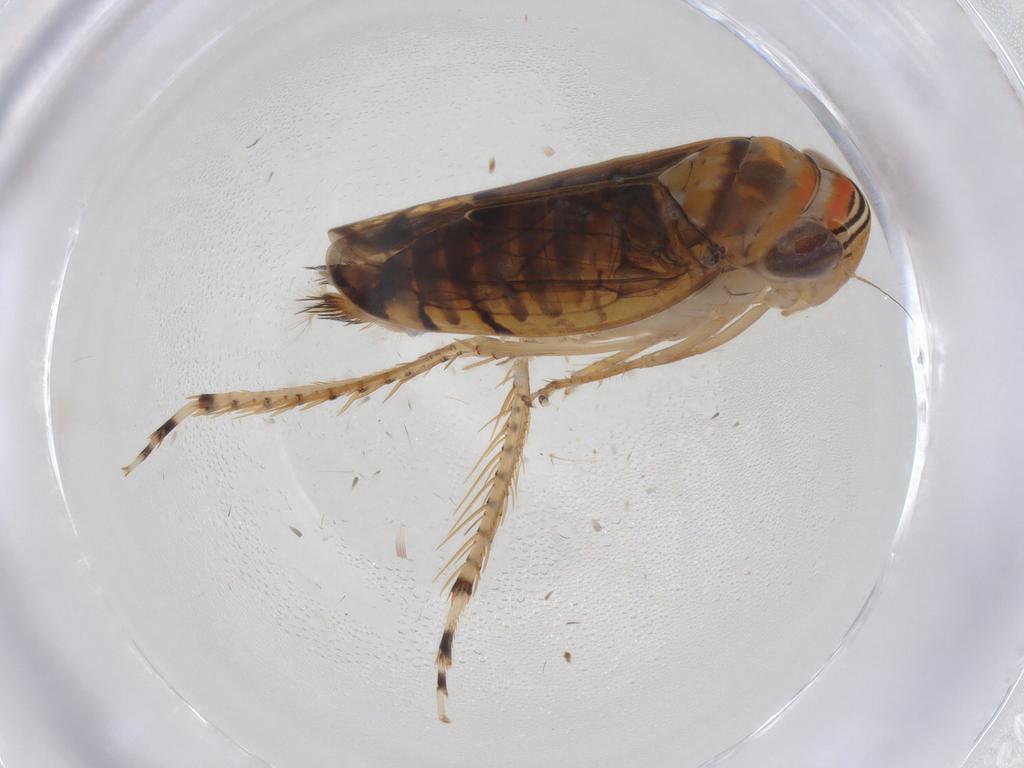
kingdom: Animalia
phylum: Arthropoda
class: Insecta
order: Hemiptera
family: Cicadellidae
